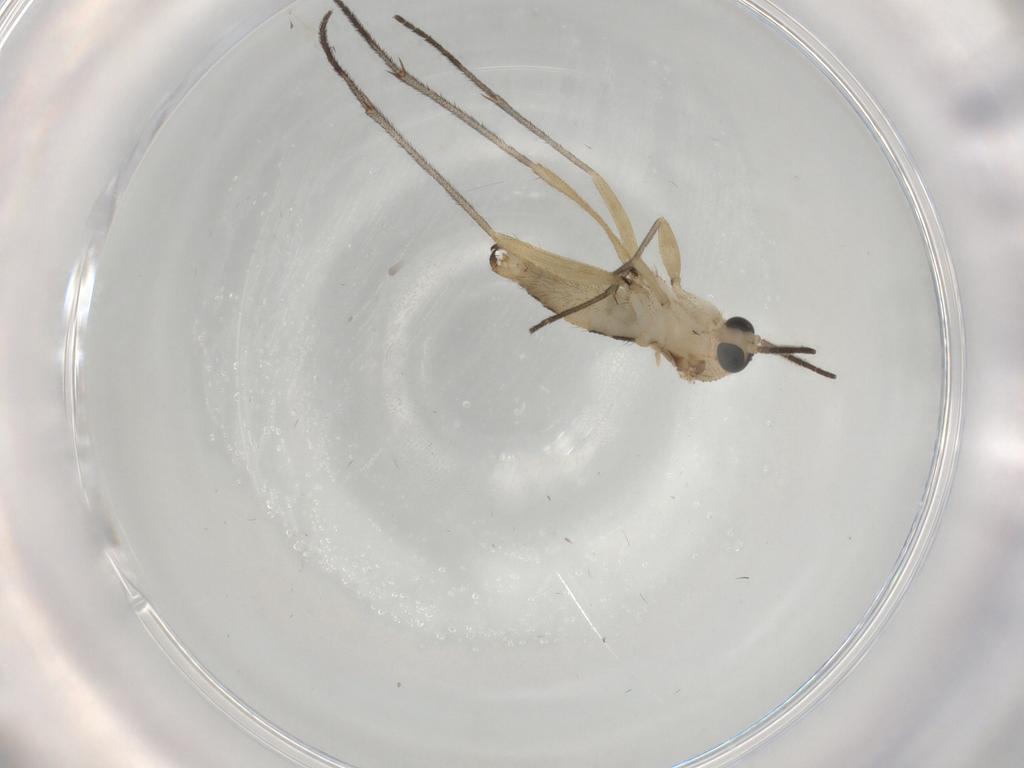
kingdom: Animalia
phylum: Arthropoda
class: Insecta
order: Diptera
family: Sciaridae
